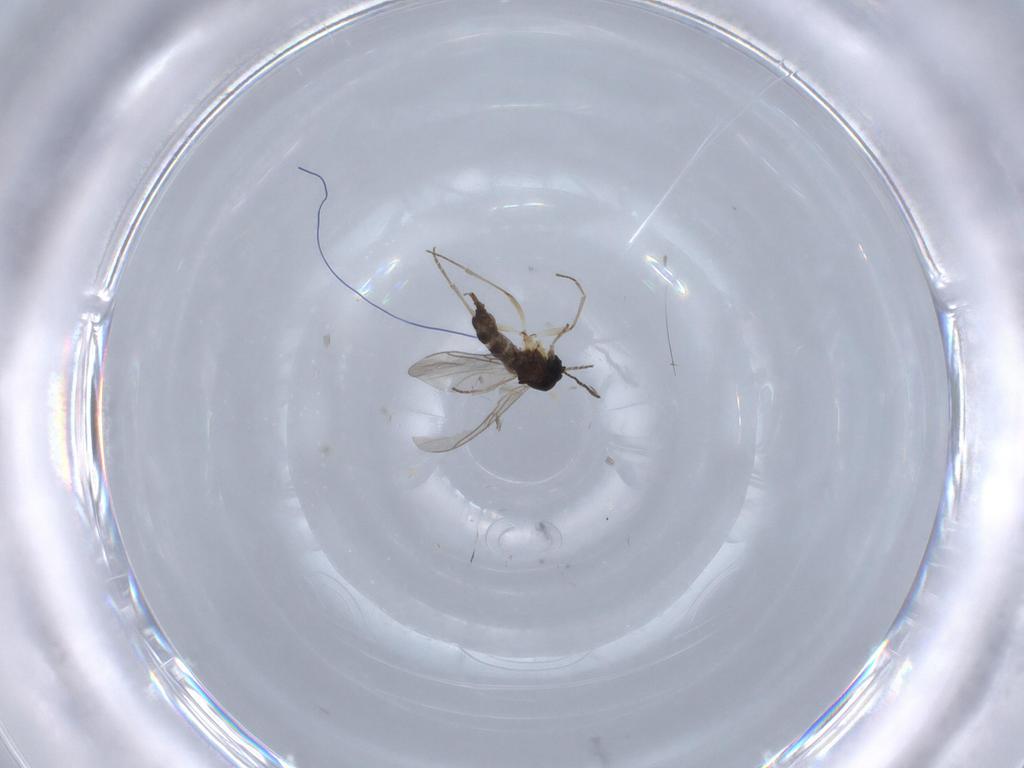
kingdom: Animalia
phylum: Arthropoda
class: Insecta
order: Diptera
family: Sciaridae
